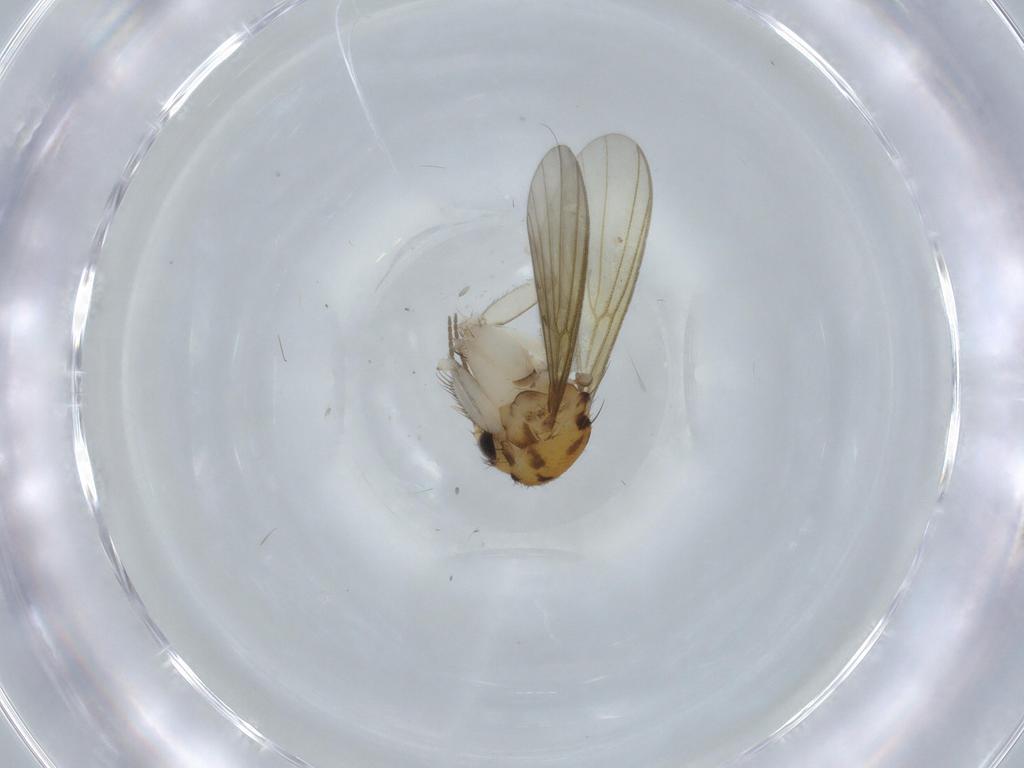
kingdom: Animalia
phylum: Arthropoda
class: Insecta
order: Diptera
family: Mycetophilidae
